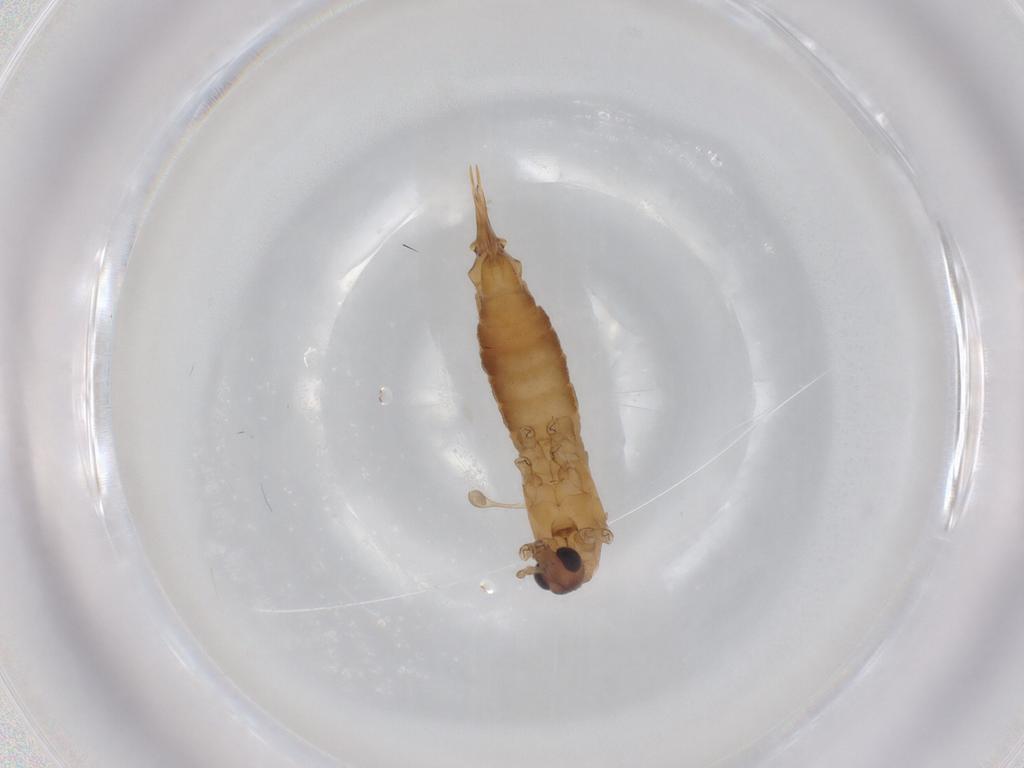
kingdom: Animalia
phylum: Arthropoda
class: Insecta
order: Diptera
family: Limoniidae
